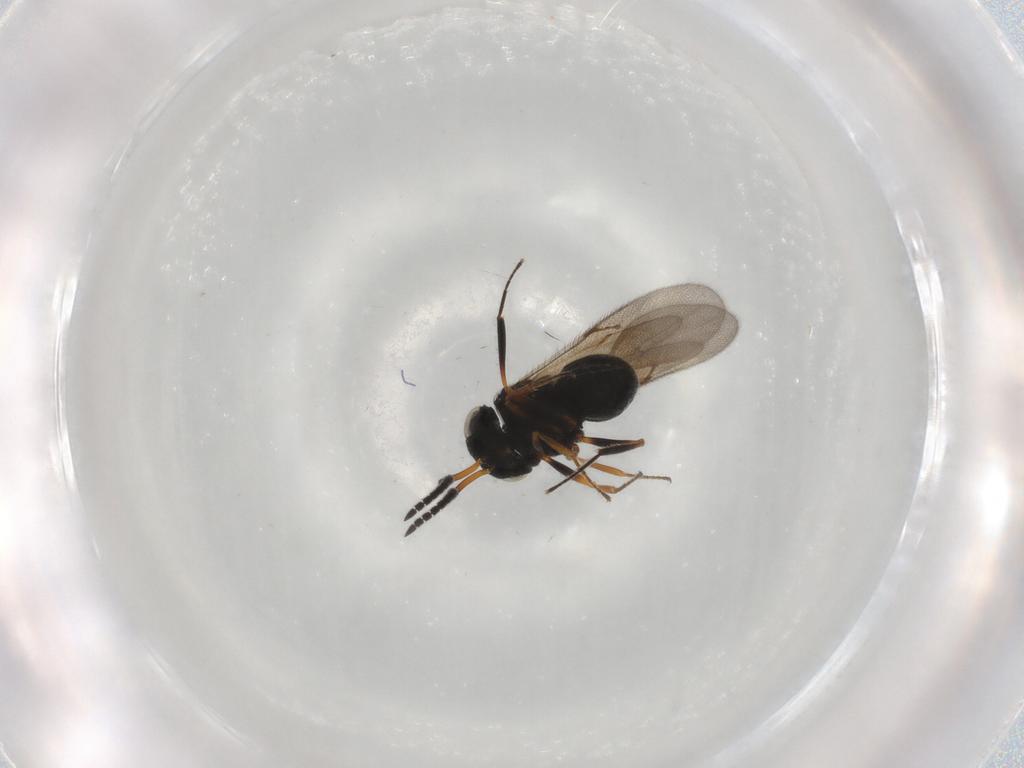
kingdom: Animalia
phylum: Arthropoda
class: Insecta
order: Hymenoptera
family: Scelionidae
